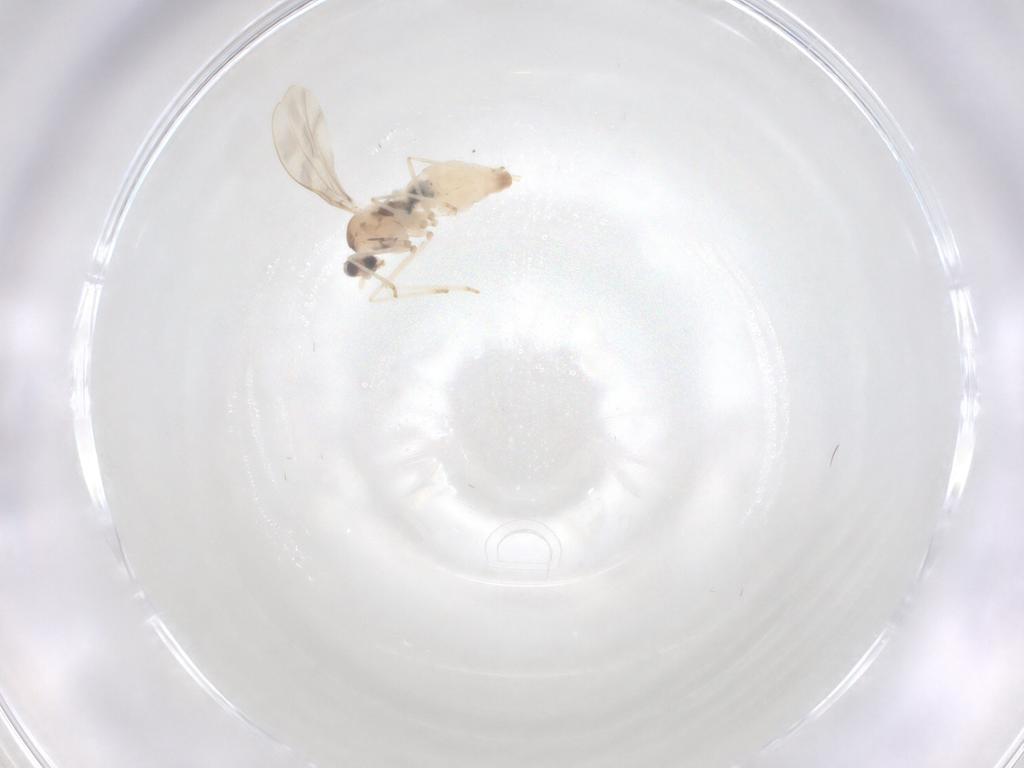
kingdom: Animalia
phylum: Arthropoda
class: Insecta
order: Diptera
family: Cecidomyiidae
